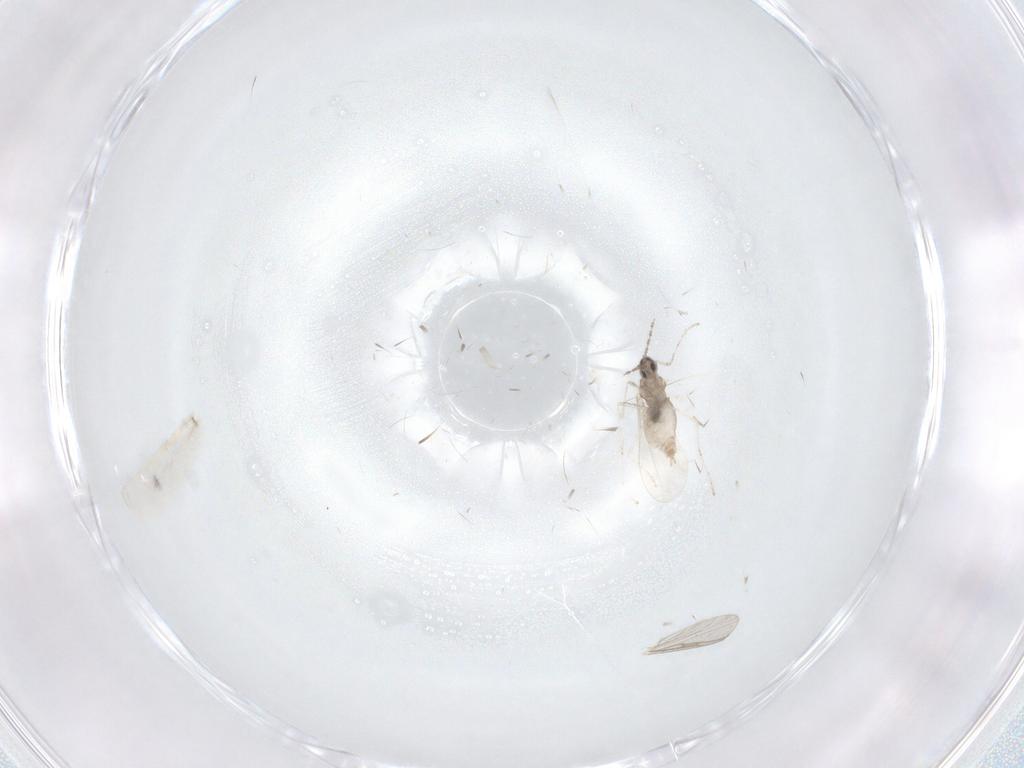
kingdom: Animalia
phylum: Arthropoda
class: Insecta
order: Diptera
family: Cecidomyiidae
